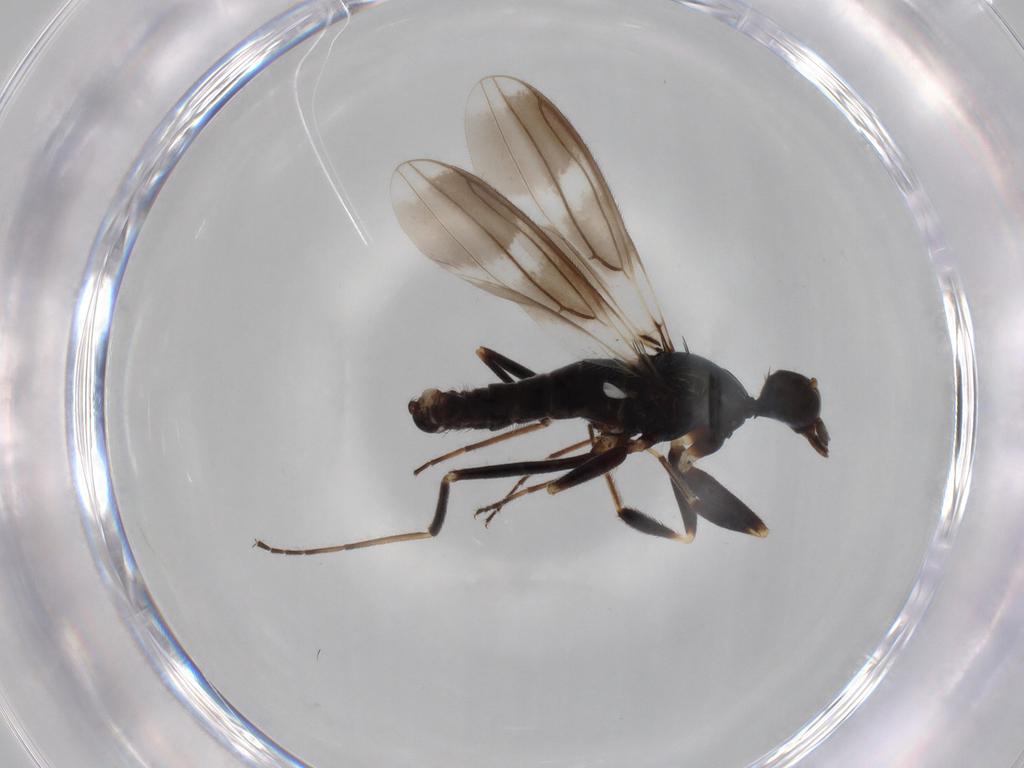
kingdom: Animalia
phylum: Arthropoda
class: Insecta
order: Diptera
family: Hybotidae
